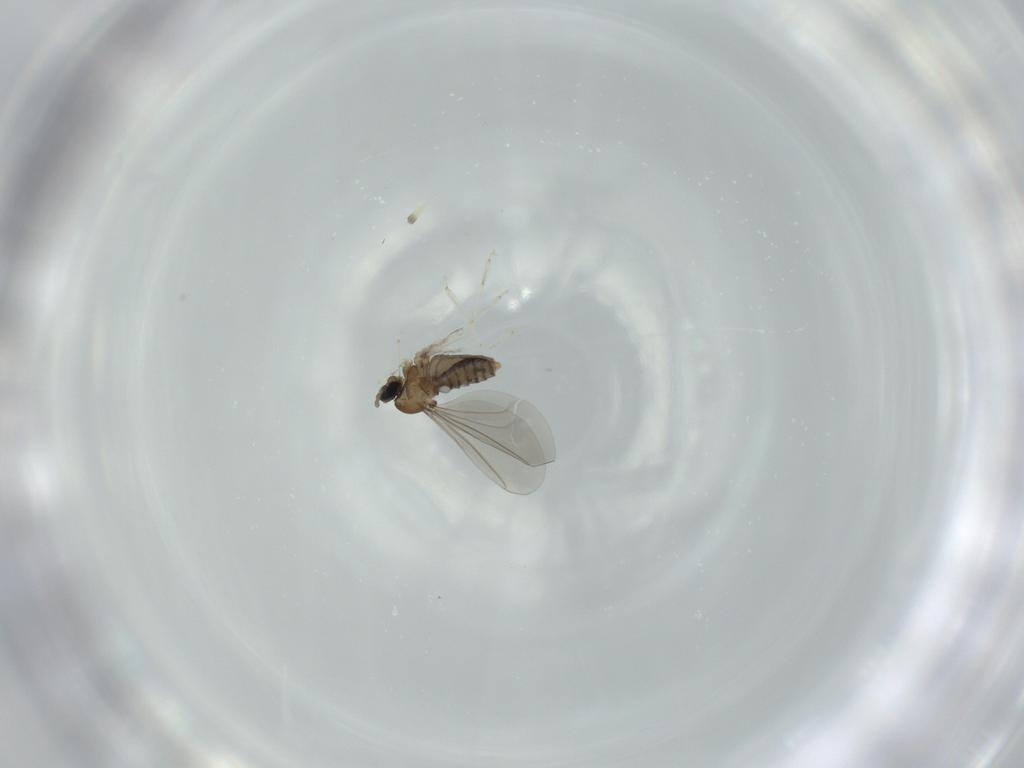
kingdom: Animalia
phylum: Arthropoda
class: Insecta
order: Diptera
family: Cecidomyiidae
